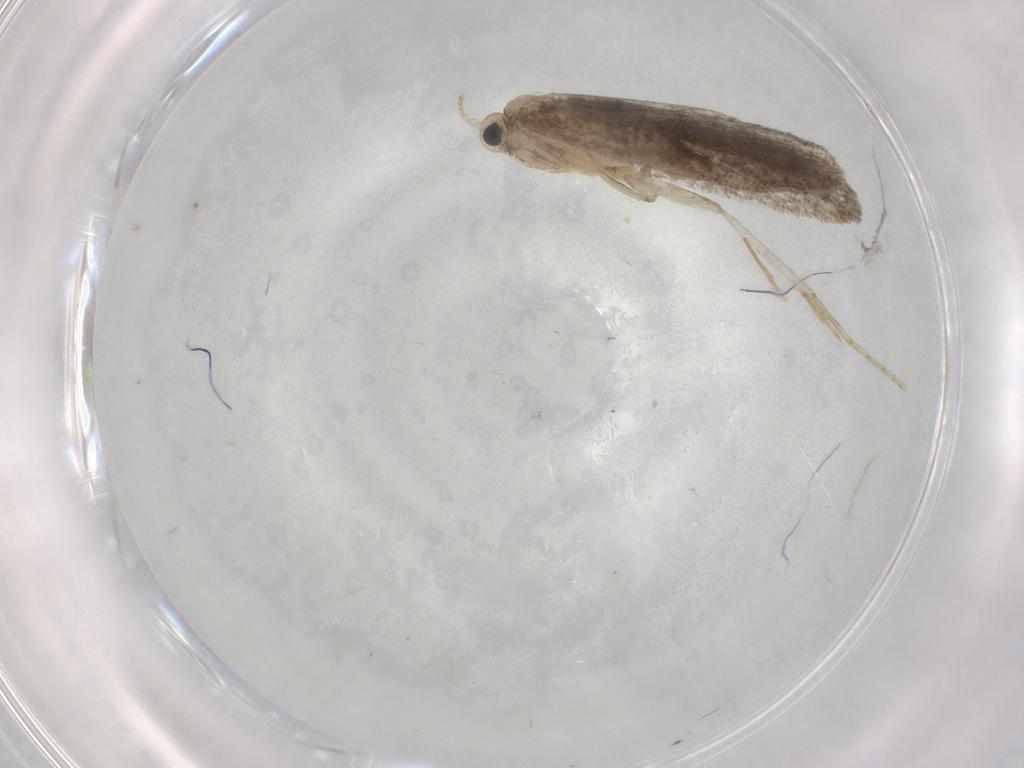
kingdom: Animalia
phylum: Arthropoda
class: Insecta
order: Lepidoptera
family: Psychidae
